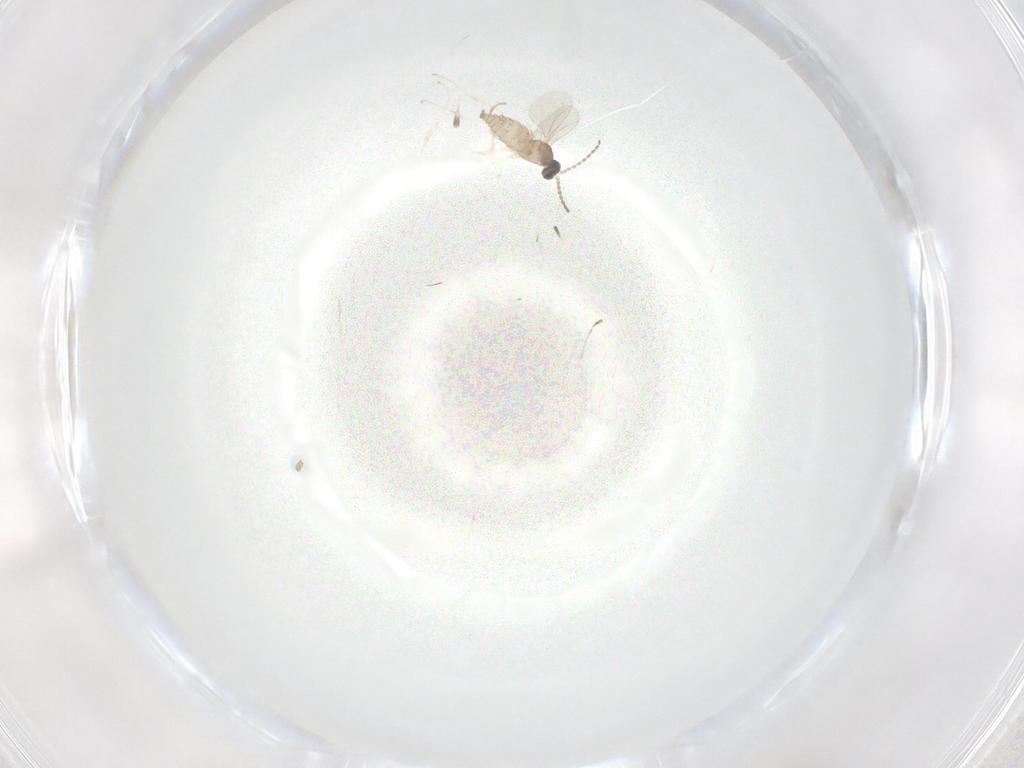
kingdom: Animalia
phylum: Arthropoda
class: Insecta
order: Diptera
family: Cecidomyiidae
